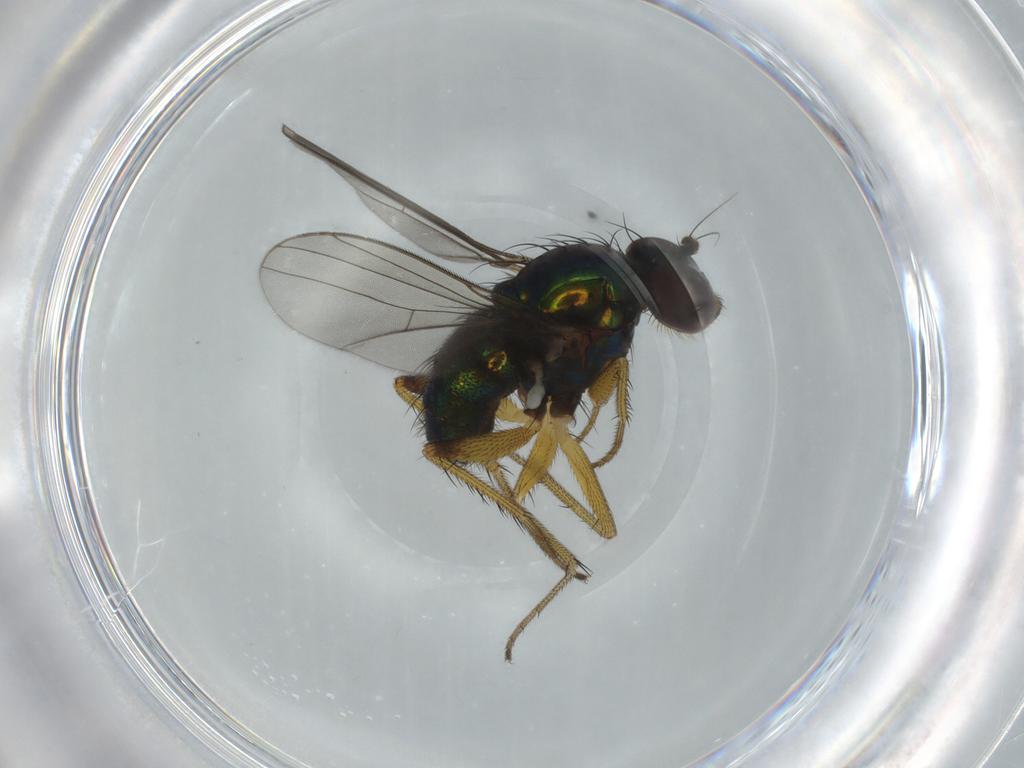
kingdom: Animalia
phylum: Arthropoda
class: Insecta
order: Diptera
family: Dolichopodidae
